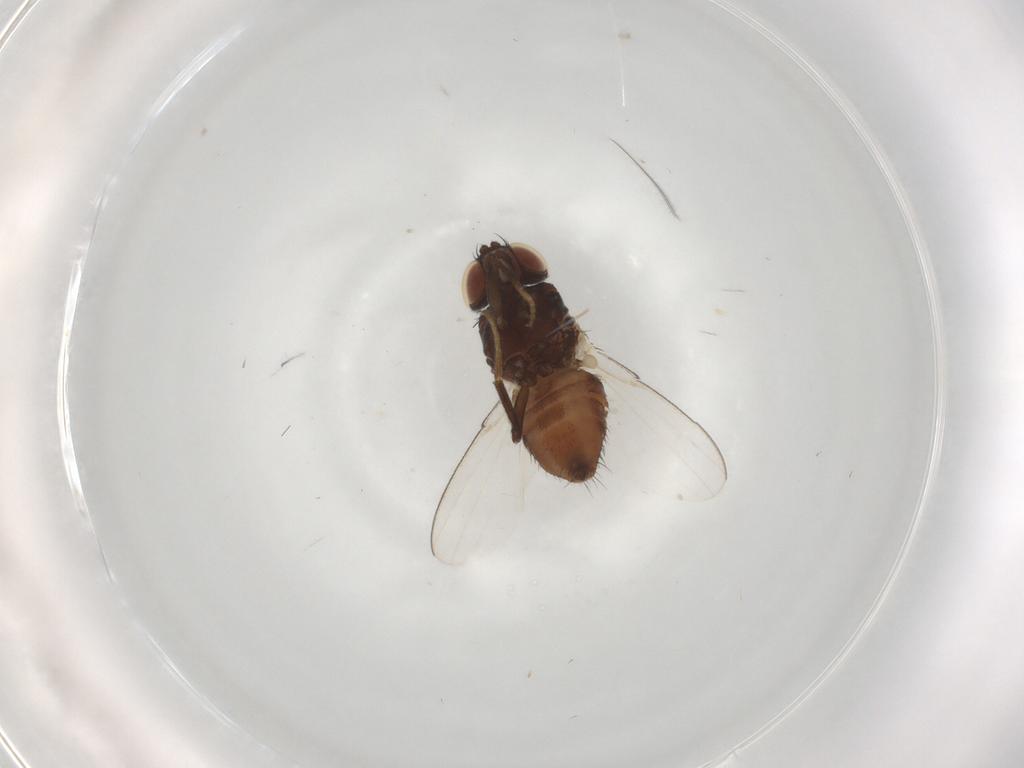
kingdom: Animalia
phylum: Arthropoda
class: Insecta
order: Diptera
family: Milichiidae
